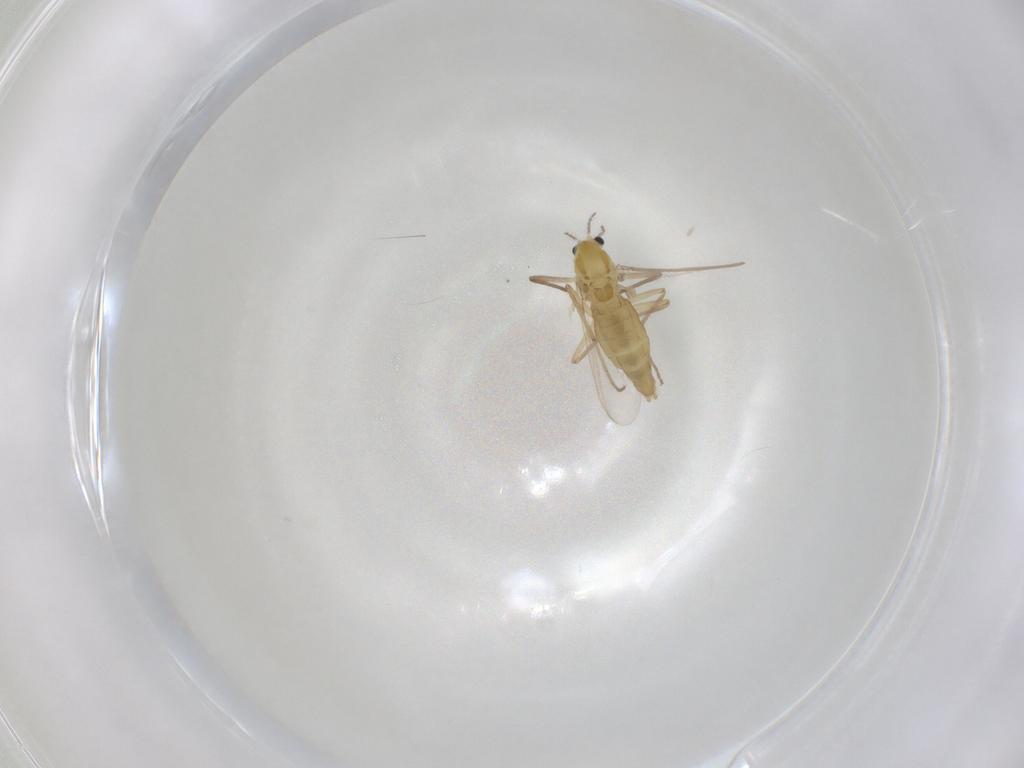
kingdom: Animalia
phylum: Arthropoda
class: Insecta
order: Diptera
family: Chironomidae
